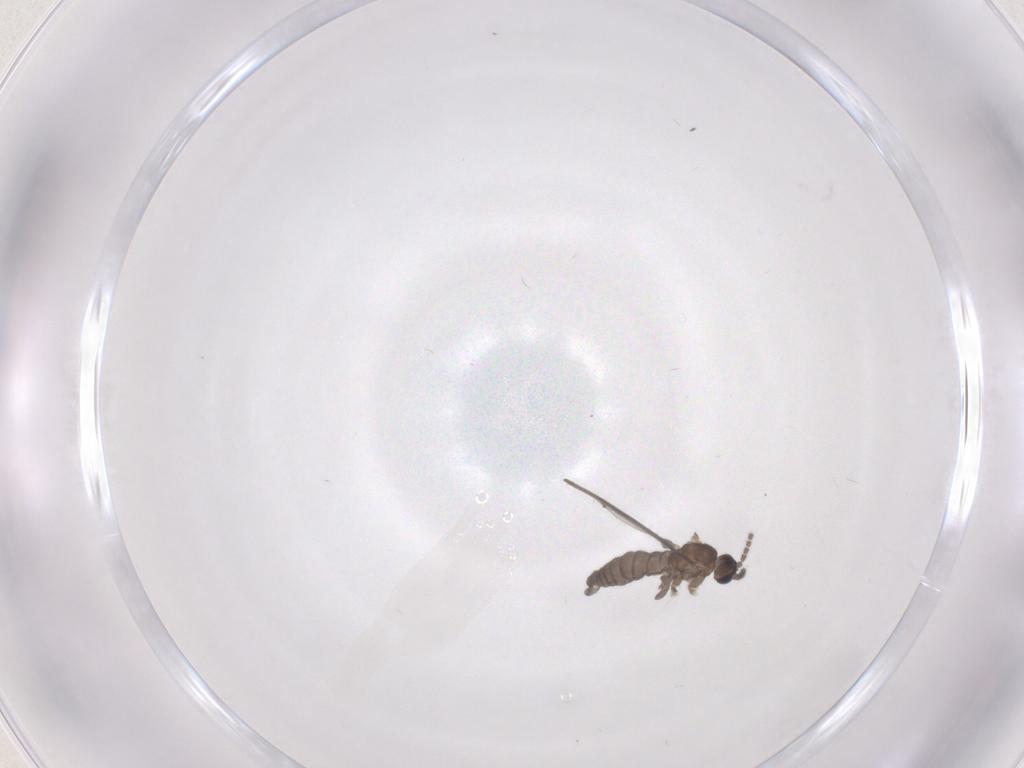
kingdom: Animalia
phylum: Arthropoda
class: Insecta
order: Diptera
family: Sciaridae
